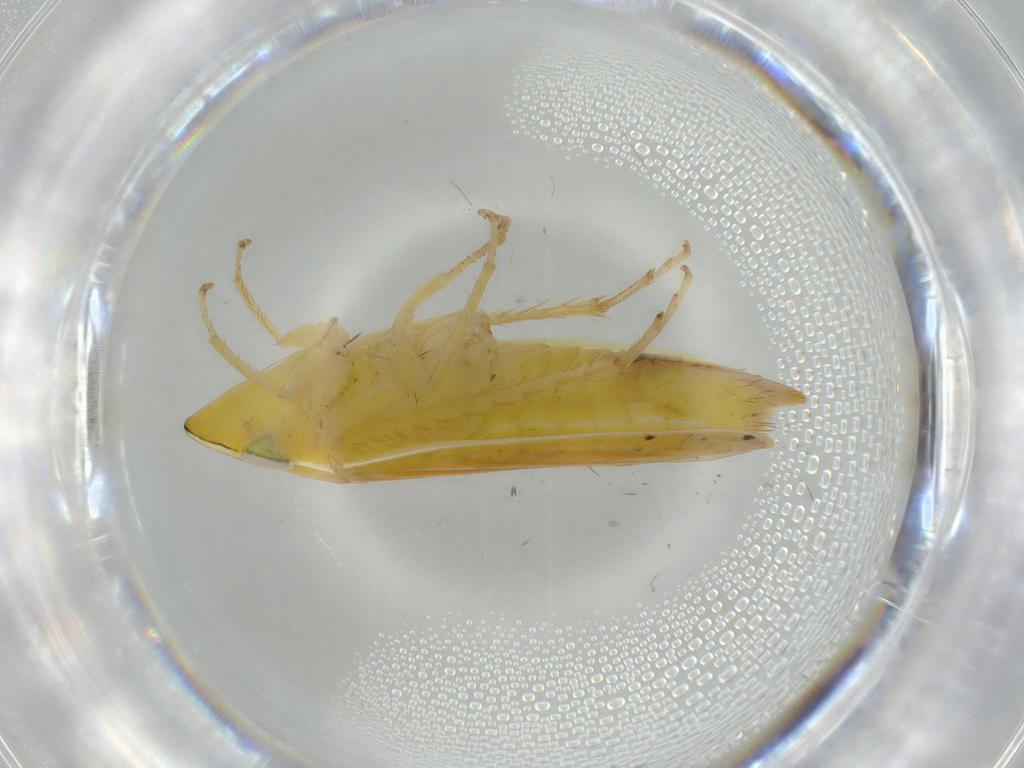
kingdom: Animalia
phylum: Arthropoda
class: Insecta
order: Hemiptera
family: Cicadellidae
